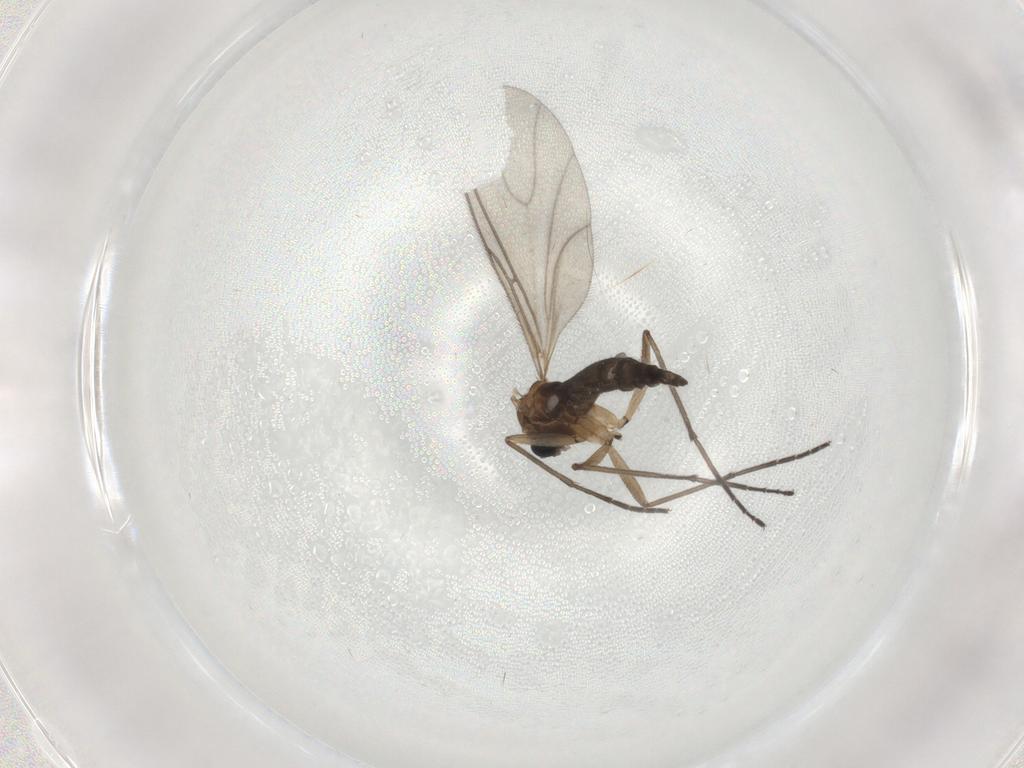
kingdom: Animalia
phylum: Arthropoda
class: Insecta
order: Diptera
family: Sciaridae
